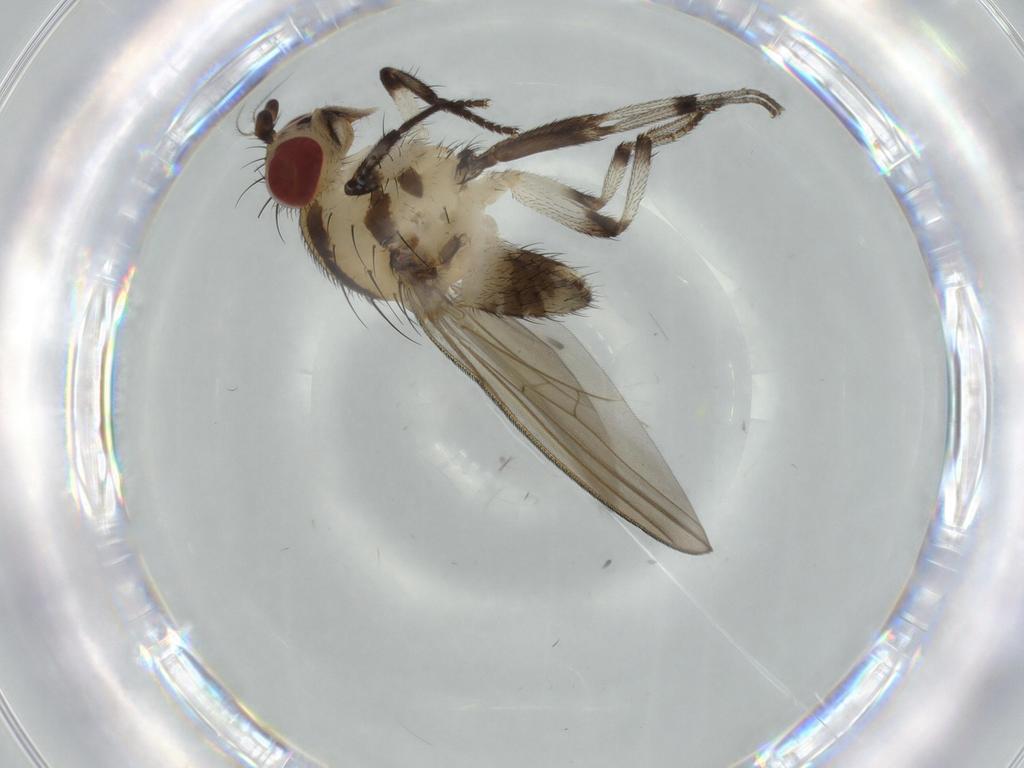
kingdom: Animalia
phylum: Arthropoda
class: Insecta
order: Diptera
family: Lauxaniidae
